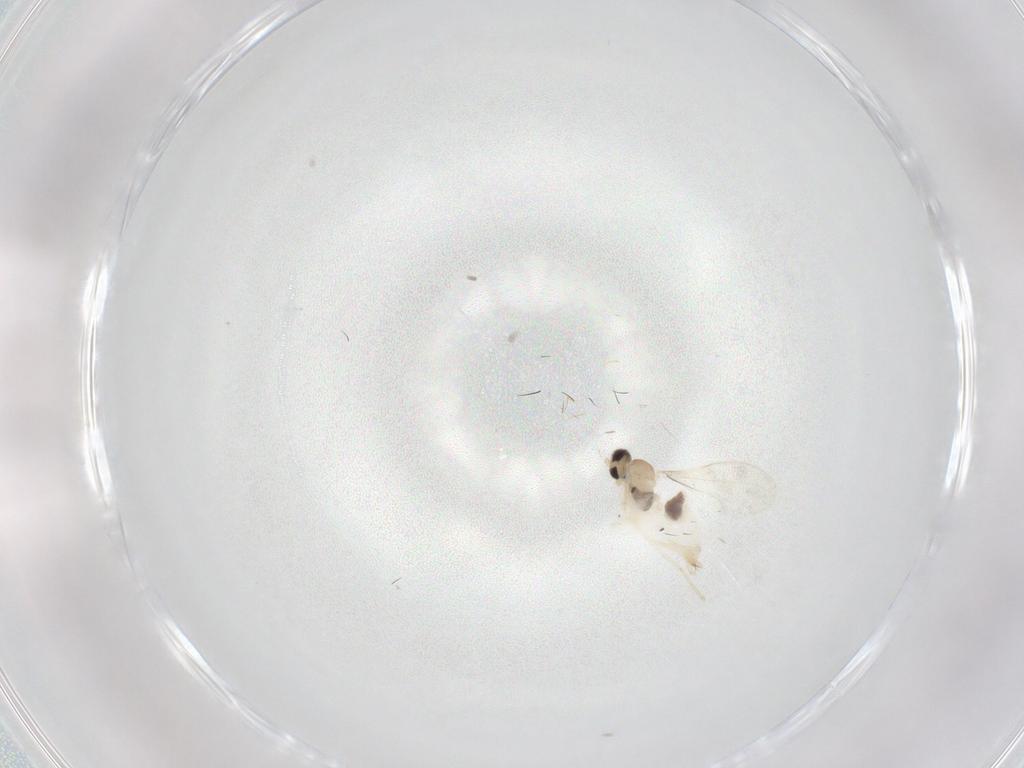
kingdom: Animalia
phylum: Arthropoda
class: Insecta
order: Diptera
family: Cecidomyiidae
